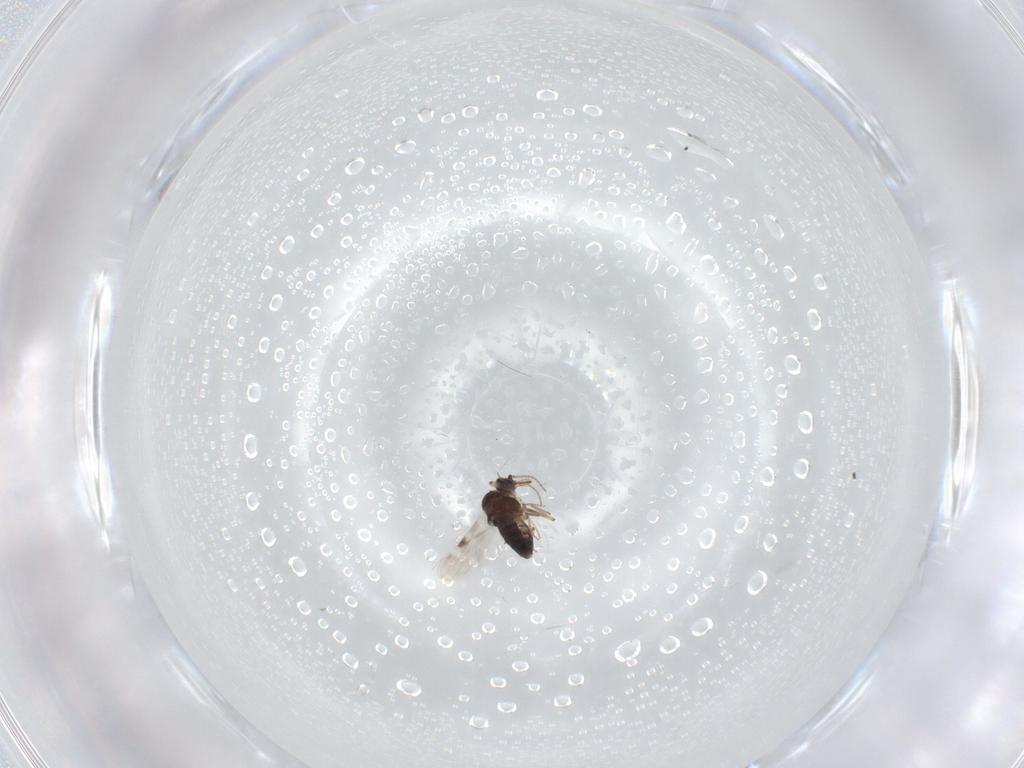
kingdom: Animalia
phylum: Arthropoda
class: Insecta
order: Diptera
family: Sciaridae
